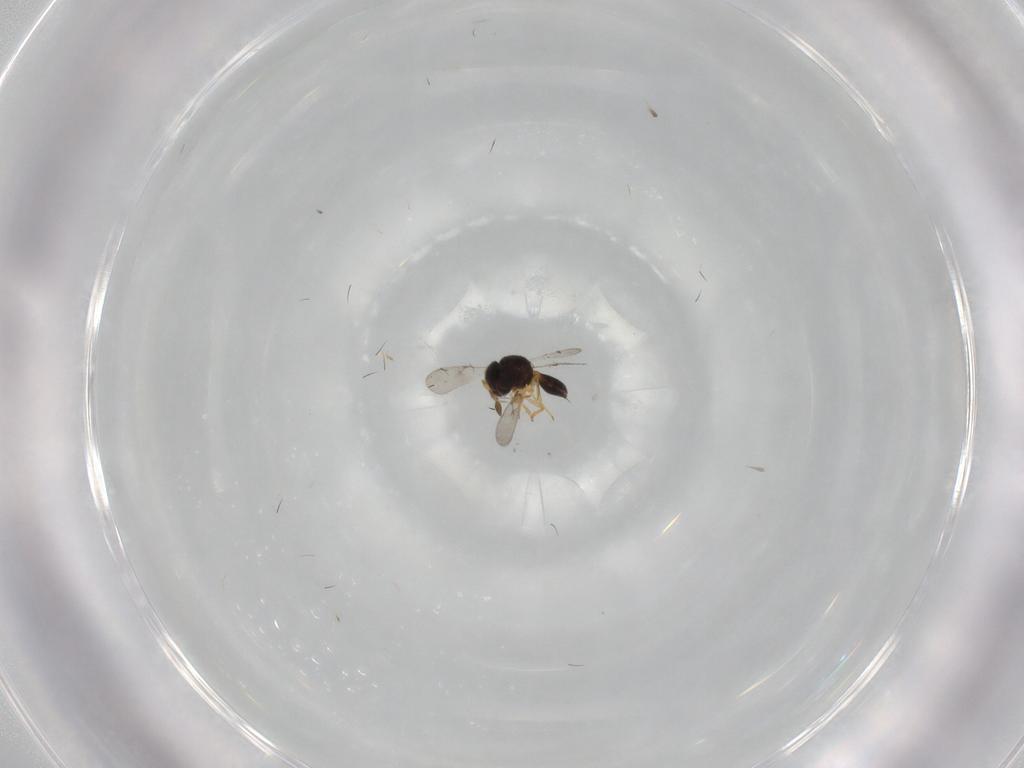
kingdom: Animalia
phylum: Arthropoda
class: Insecta
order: Hymenoptera
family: Scelionidae
